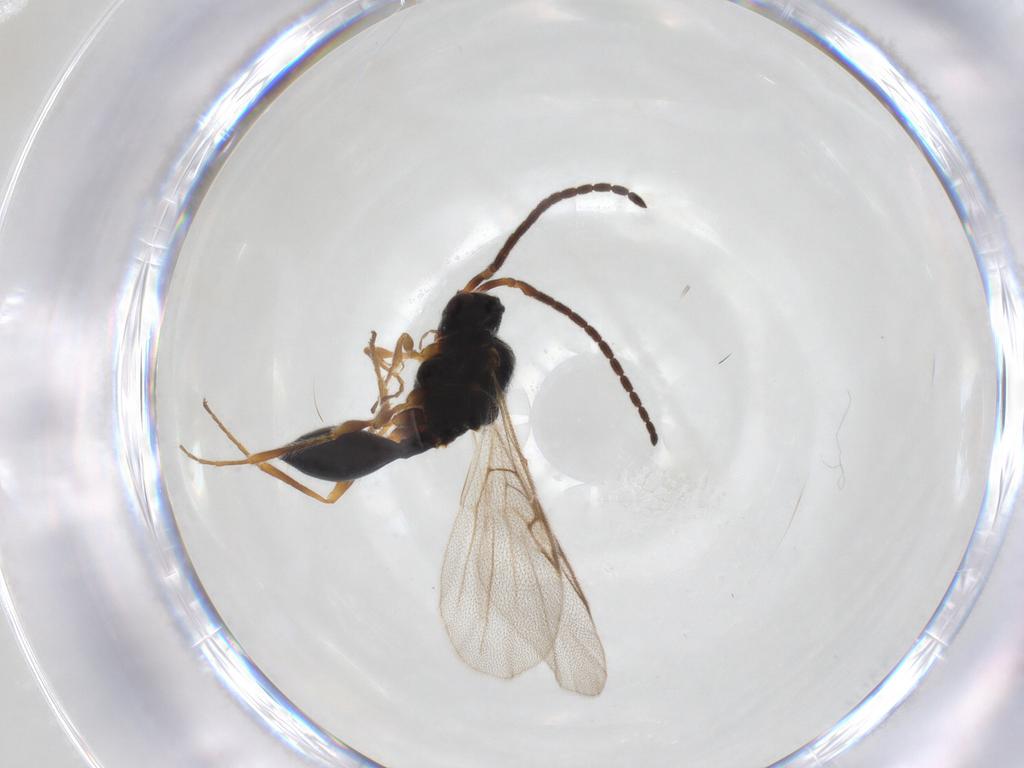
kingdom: Animalia
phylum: Arthropoda
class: Insecta
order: Hymenoptera
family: Diapriidae
